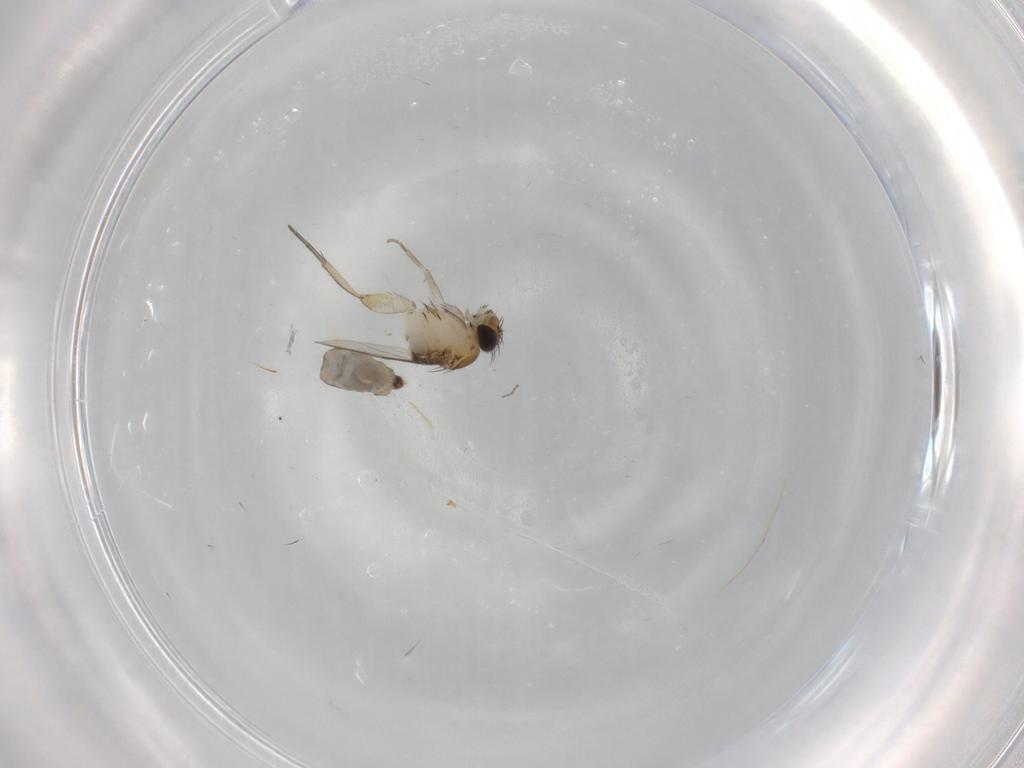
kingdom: Animalia
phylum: Arthropoda
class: Insecta
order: Diptera
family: Phoridae
